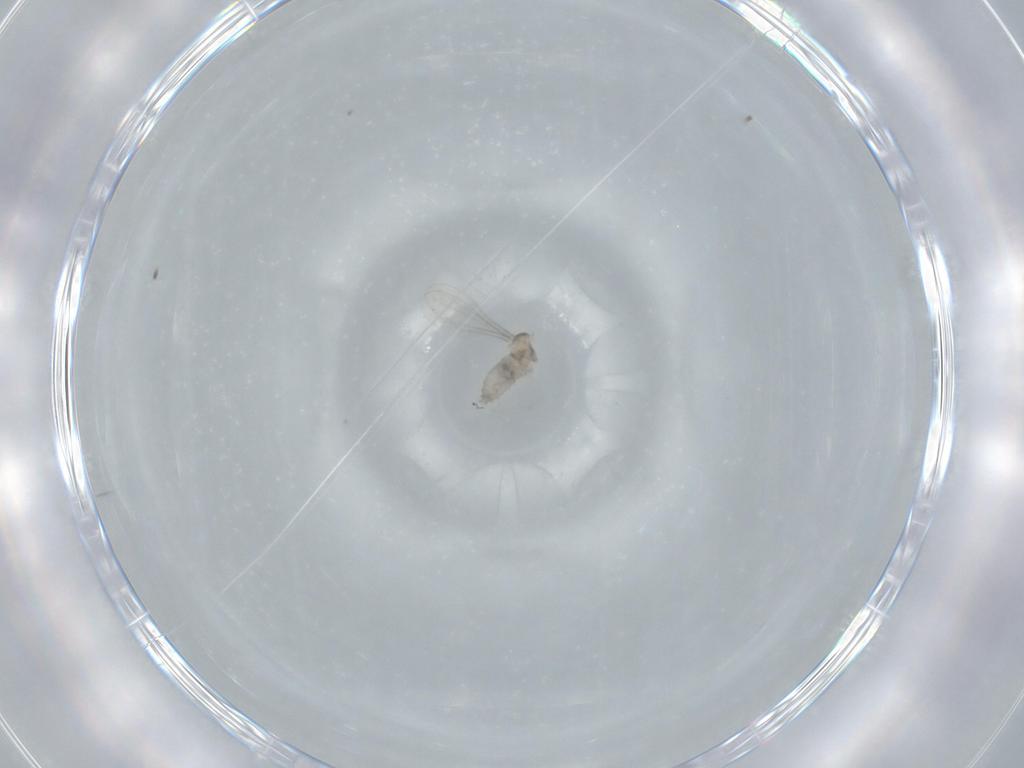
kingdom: Animalia
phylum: Arthropoda
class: Insecta
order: Diptera
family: Cecidomyiidae
